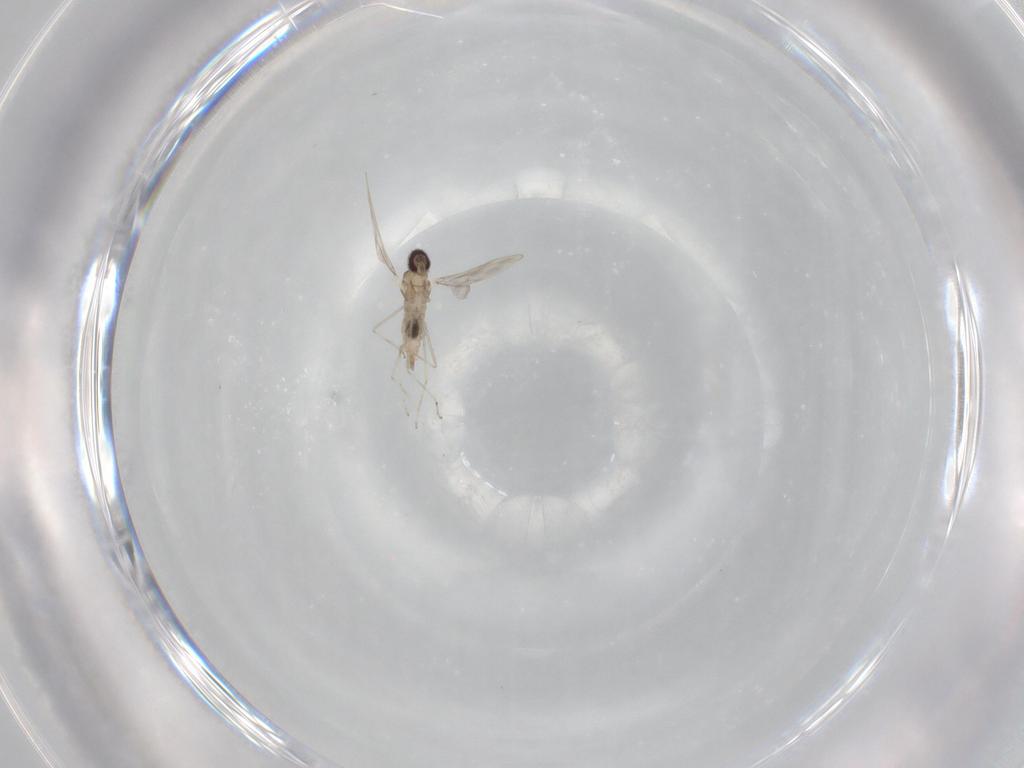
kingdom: Animalia
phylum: Arthropoda
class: Insecta
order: Diptera
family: Cecidomyiidae
